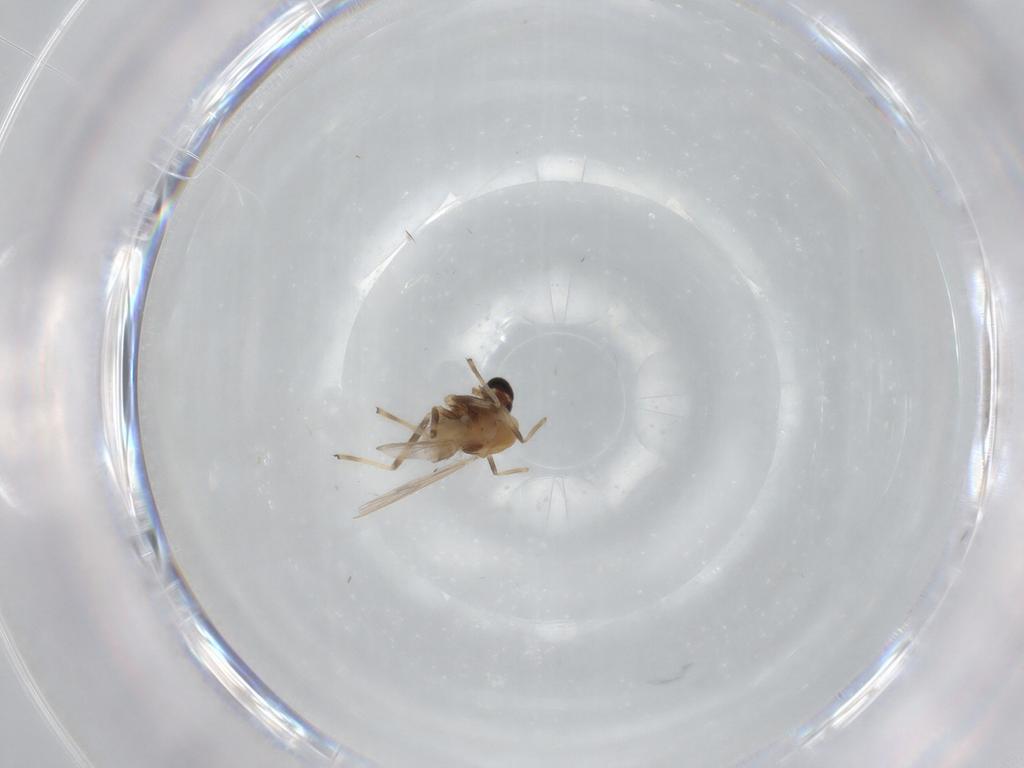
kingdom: Animalia
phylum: Arthropoda
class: Insecta
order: Diptera
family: Chironomidae
